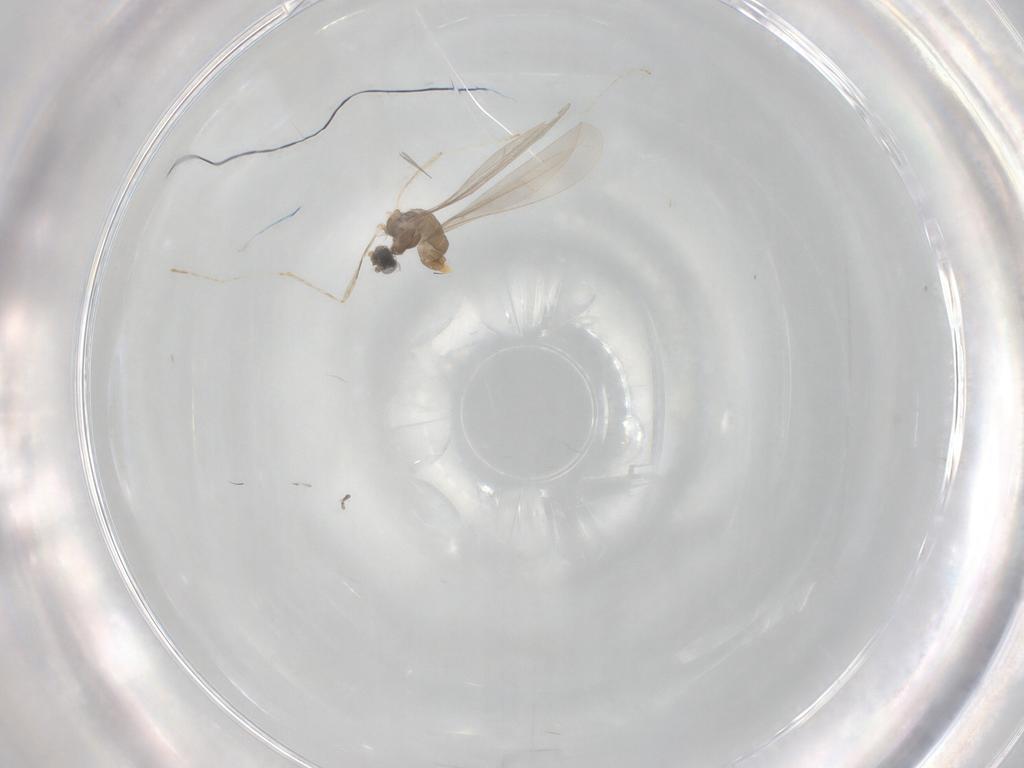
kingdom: Animalia
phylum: Arthropoda
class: Insecta
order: Diptera
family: Cecidomyiidae
